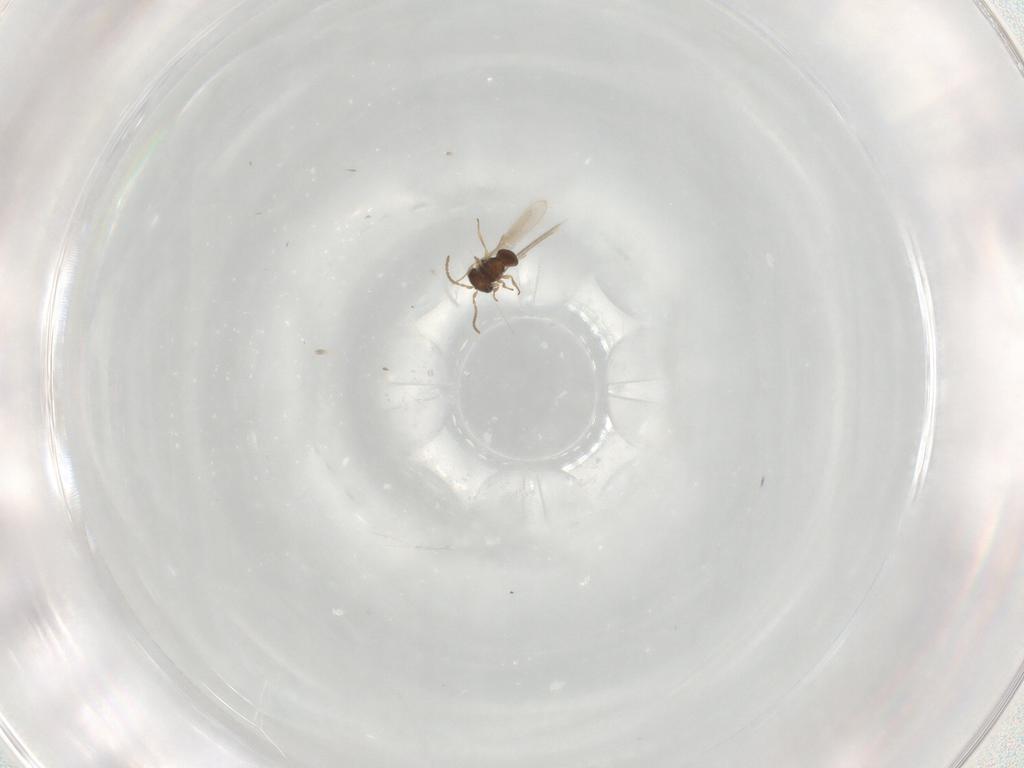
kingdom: Animalia
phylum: Arthropoda
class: Insecta
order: Hymenoptera
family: Scelionidae
